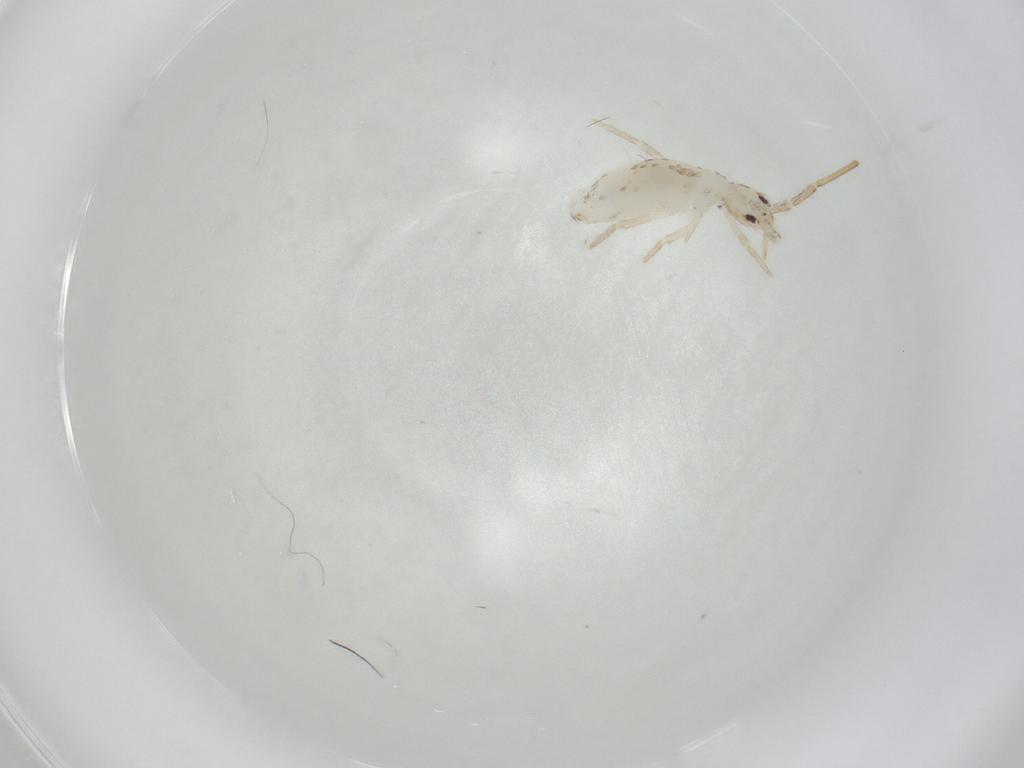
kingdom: Animalia
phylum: Arthropoda
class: Collembola
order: Entomobryomorpha
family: Entomobryidae
